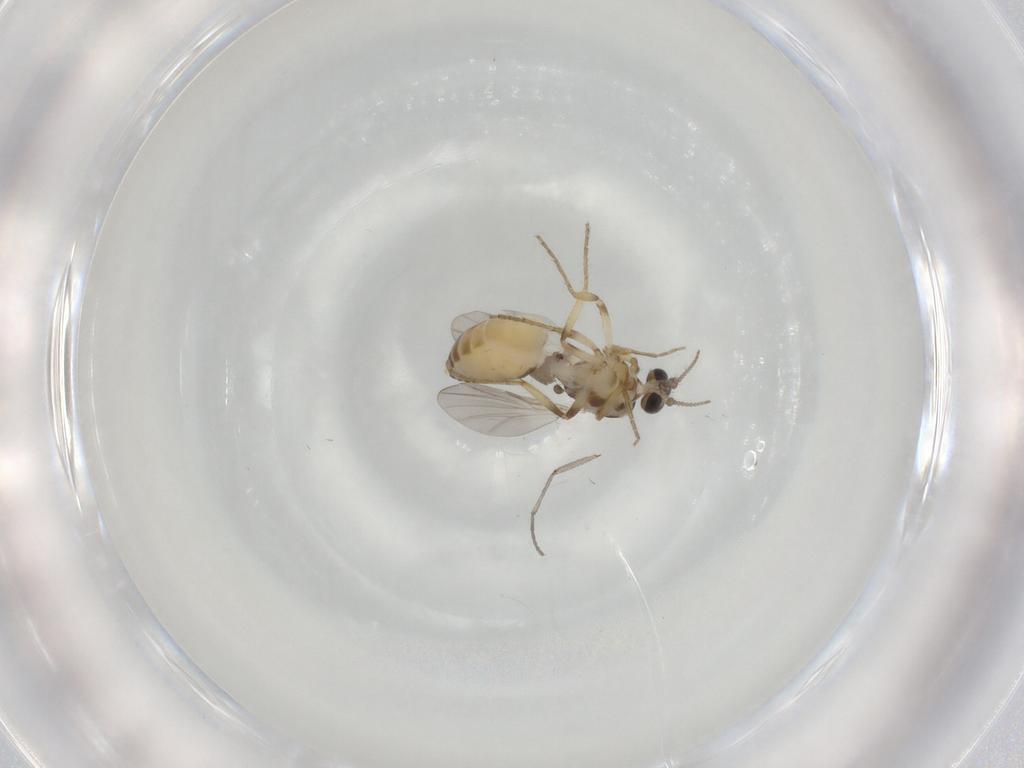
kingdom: Animalia
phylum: Arthropoda
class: Insecta
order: Diptera
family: Ceratopogonidae
